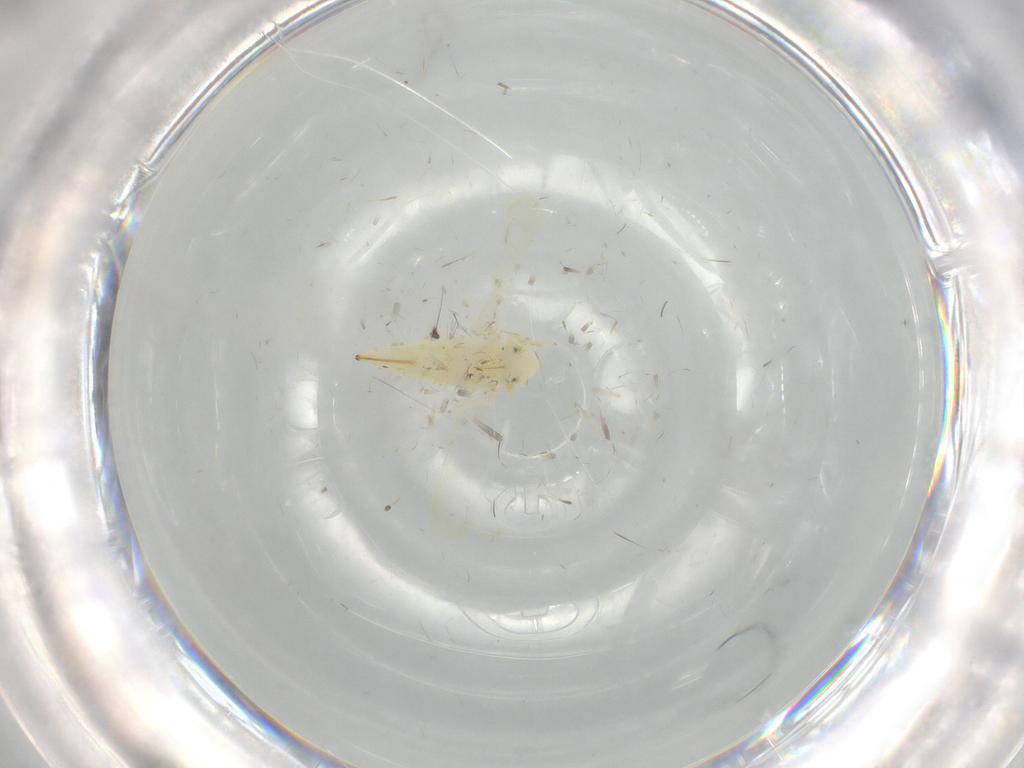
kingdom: Animalia
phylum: Arthropoda
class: Insecta
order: Hemiptera
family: Cicadellidae
